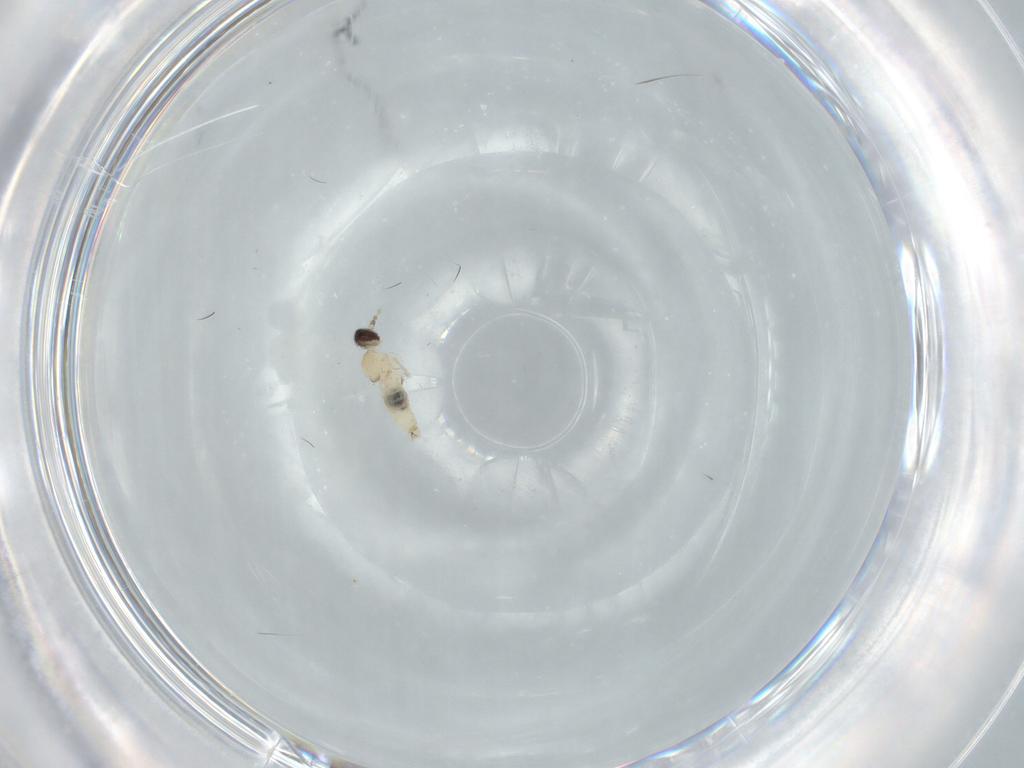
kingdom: Animalia
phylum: Arthropoda
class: Insecta
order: Diptera
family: Cecidomyiidae
